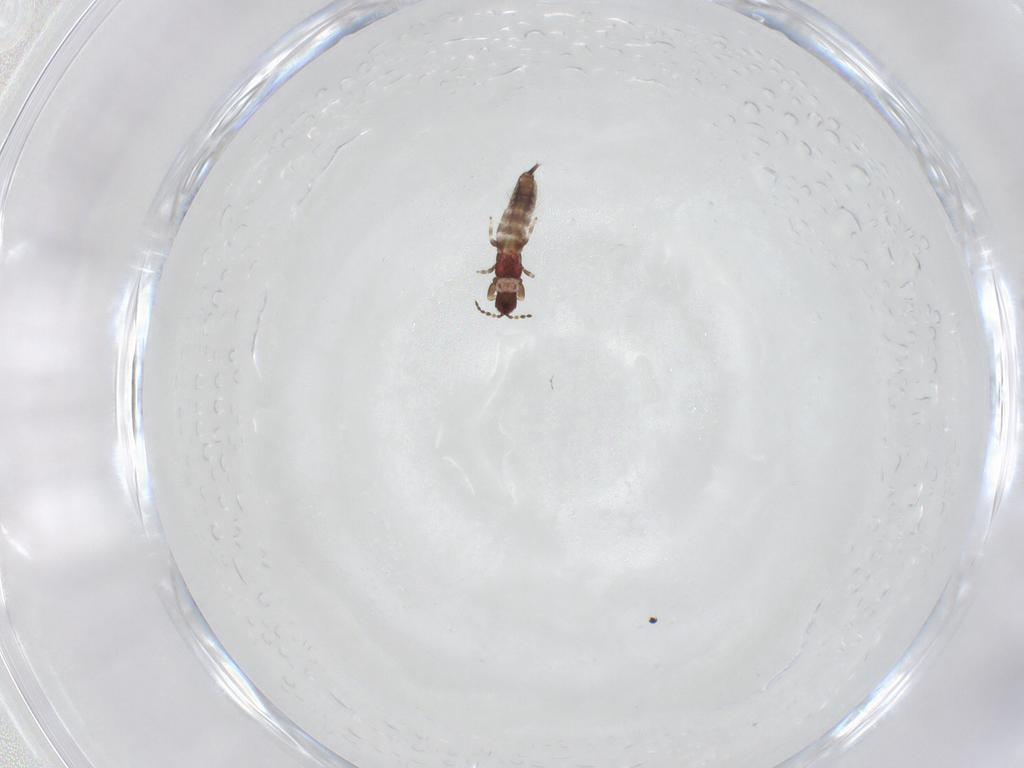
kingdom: Animalia
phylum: Arthropoda
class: Insecta
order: Thysanoptera
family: Phlaeothripidae
